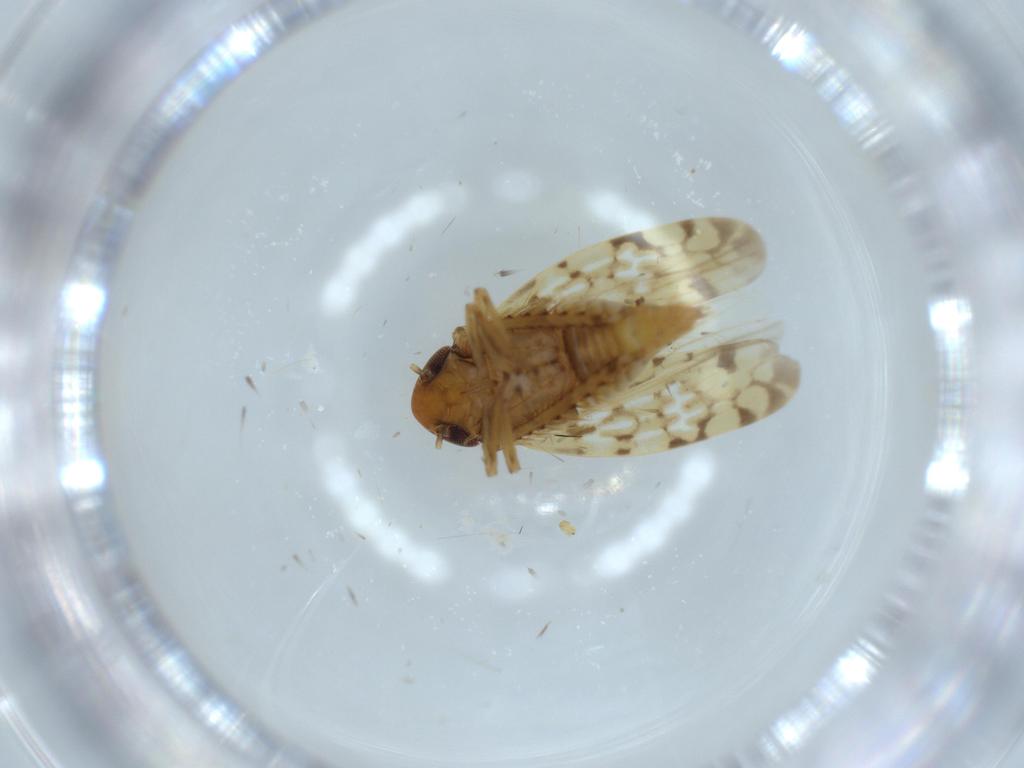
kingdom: Animalia
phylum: Arthropoda
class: Insecta
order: Hemiptera
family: Cicadellidae
